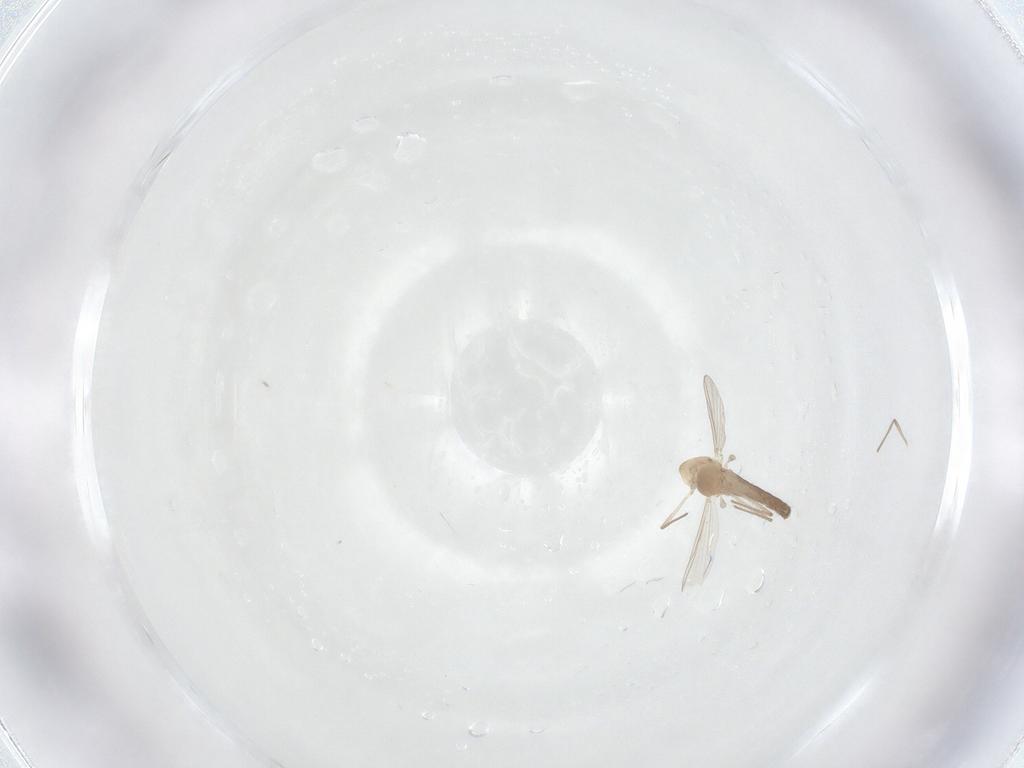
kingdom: Animalia
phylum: Arthropoda
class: Insecta
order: Diptera
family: Chironomidae
